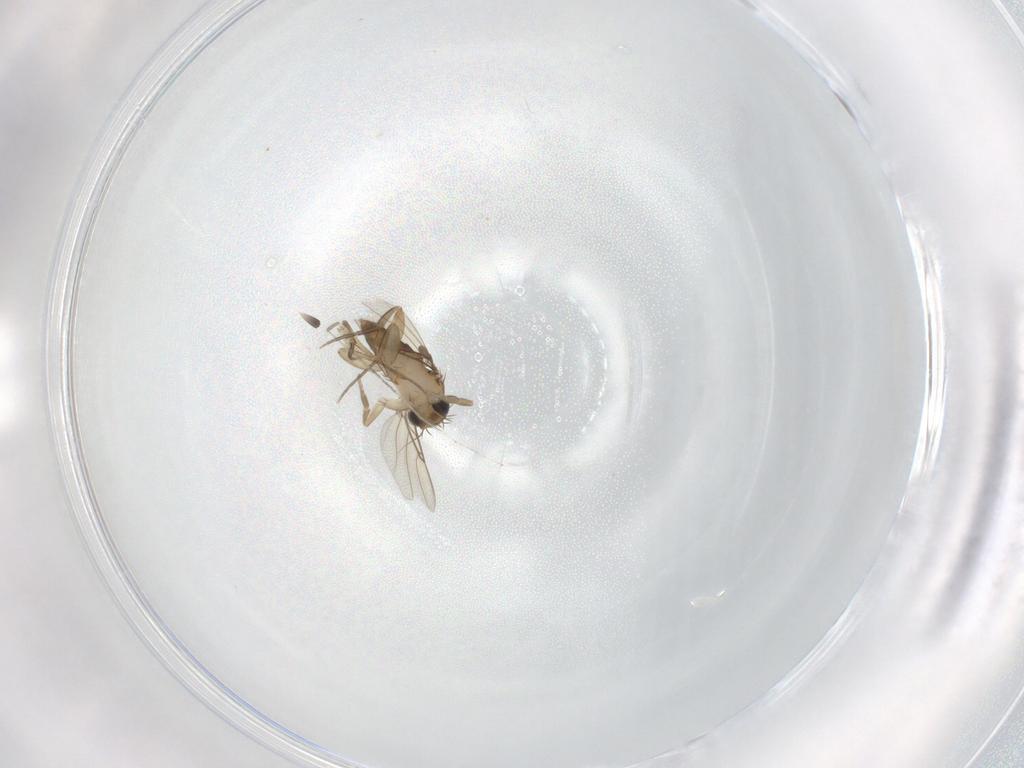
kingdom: Animalia
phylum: Arthropoda
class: Insecta
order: Diptera
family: Phoridae
